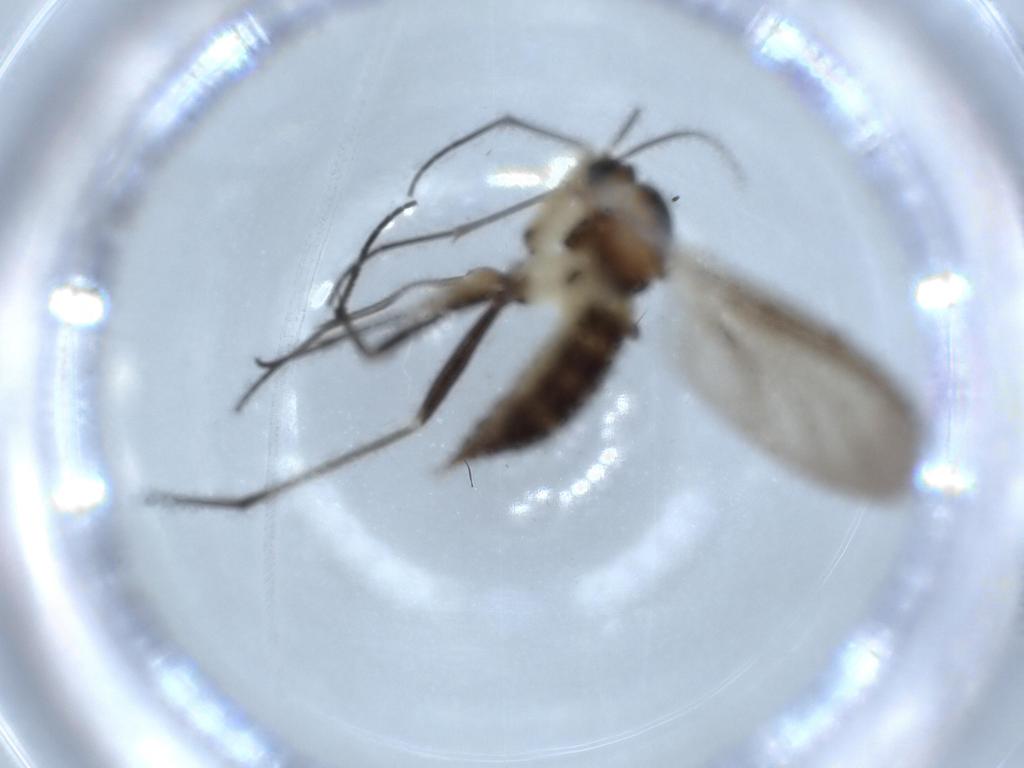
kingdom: Animalia
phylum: Arthropoda
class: Insecta
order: Diptera
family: Sciaridae
